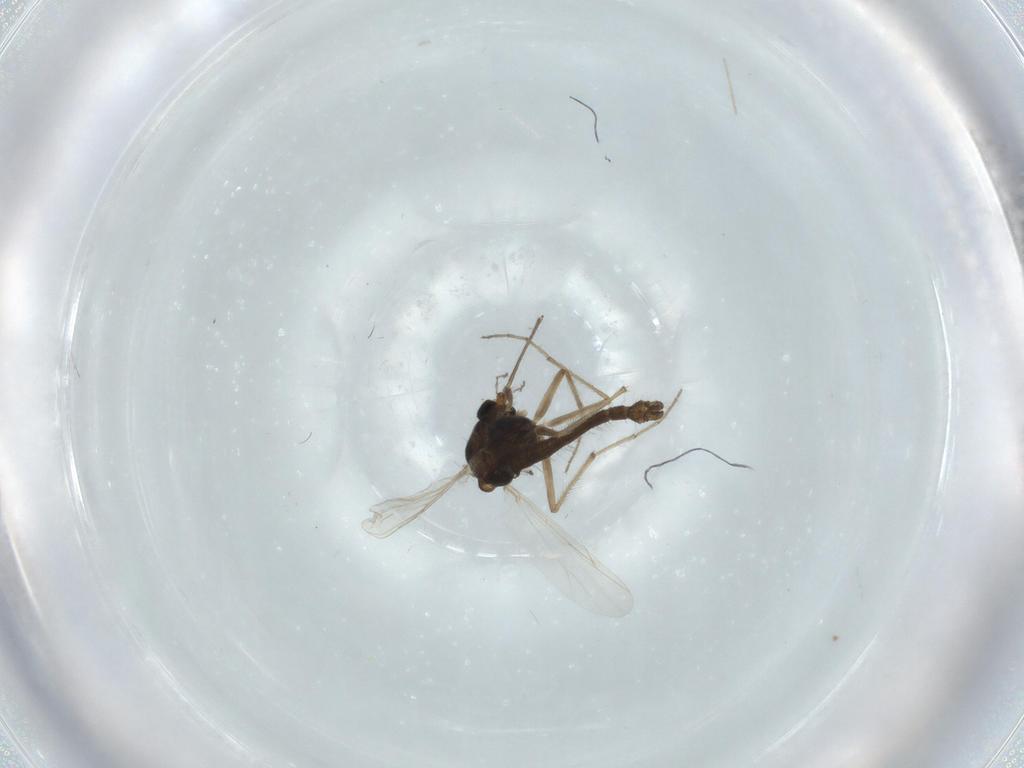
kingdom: Animalia
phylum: Arthropoda
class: Insecta
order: Diptera
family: Chironomidae
